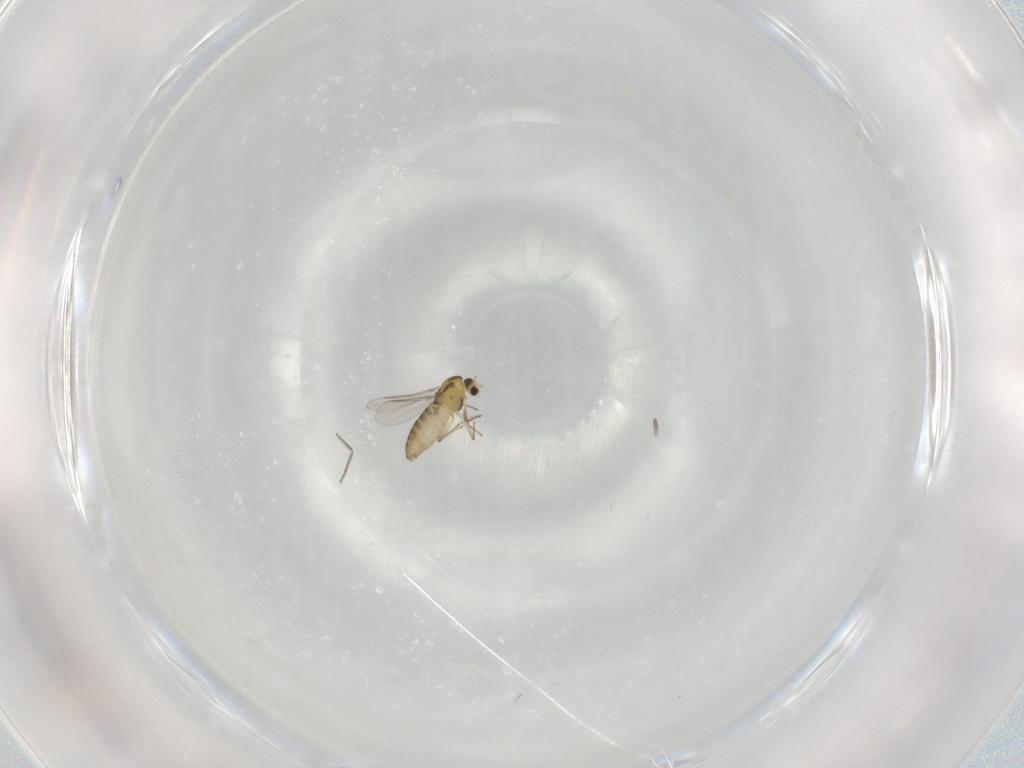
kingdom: Animalia
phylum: Arthropoda
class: Insecta
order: Diptera
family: Chironomidae
